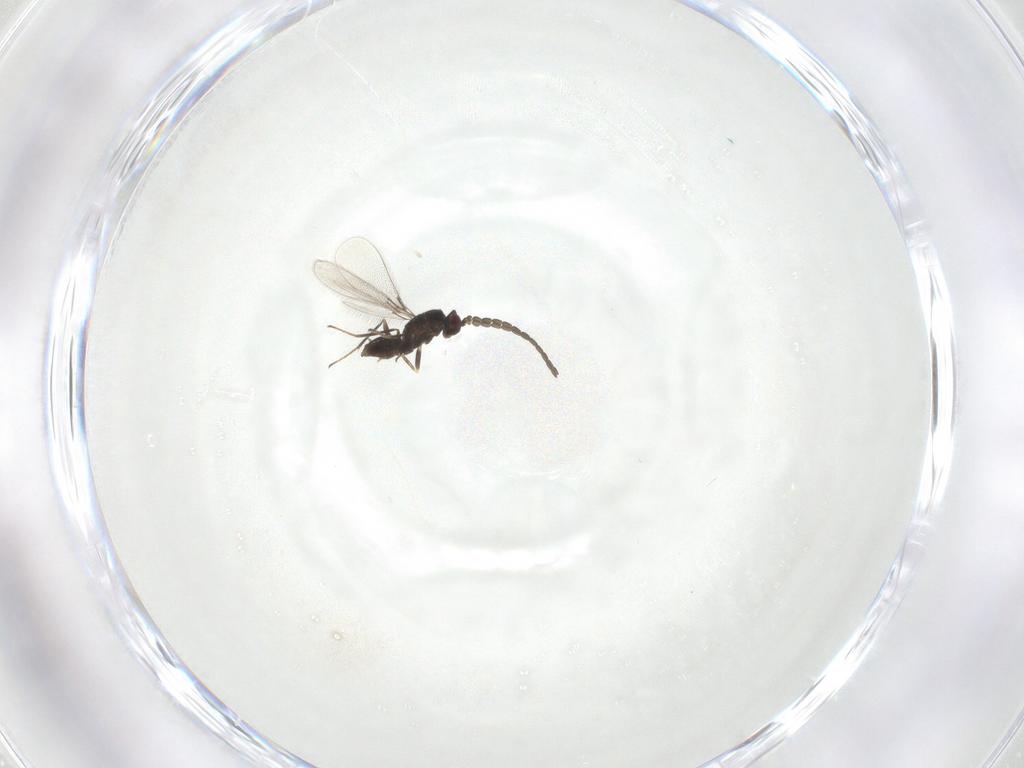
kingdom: Animalia
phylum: Arthropoda
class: Insecta
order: Hymenoptera
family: Mymaridae
